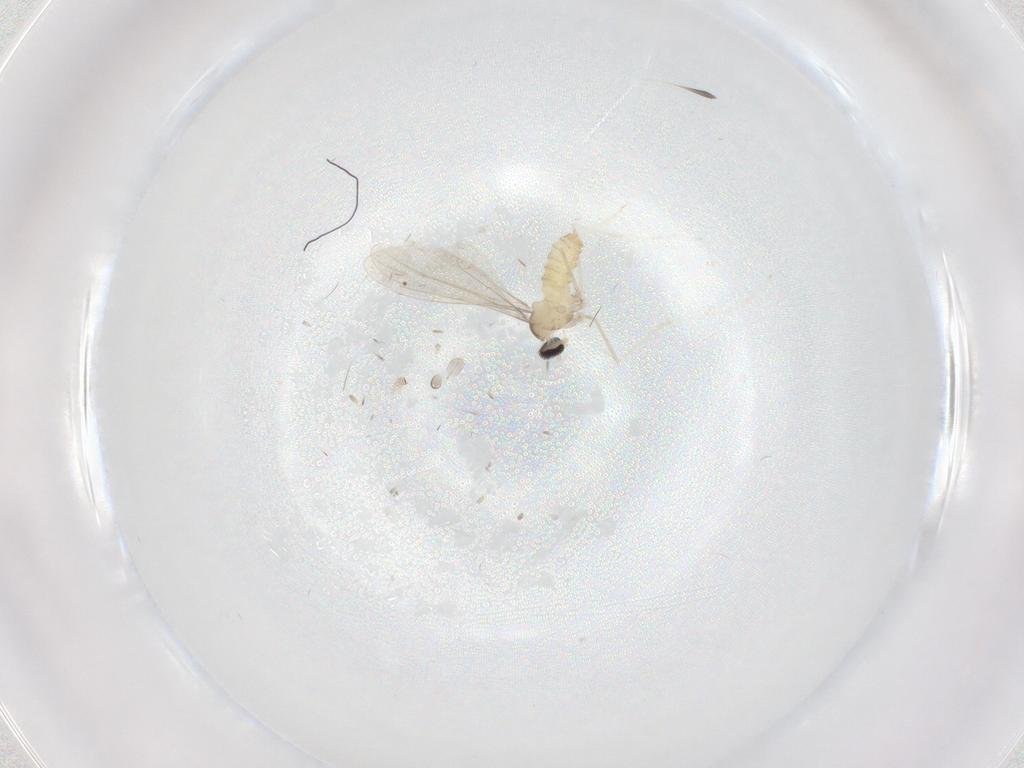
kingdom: Animalia
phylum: Arthropoda
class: Insecta
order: Diptera
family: Cecidomyiidae
